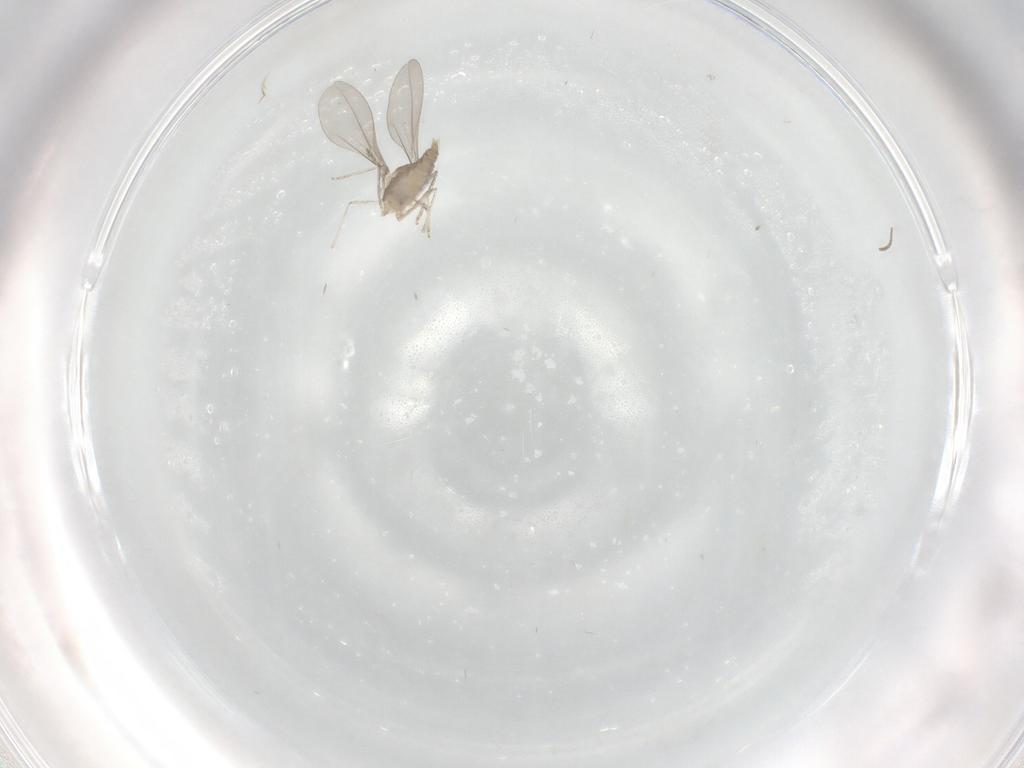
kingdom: Animalia
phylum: Arthropoda
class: Insecta
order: Diptera
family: Cecidomyiidae
